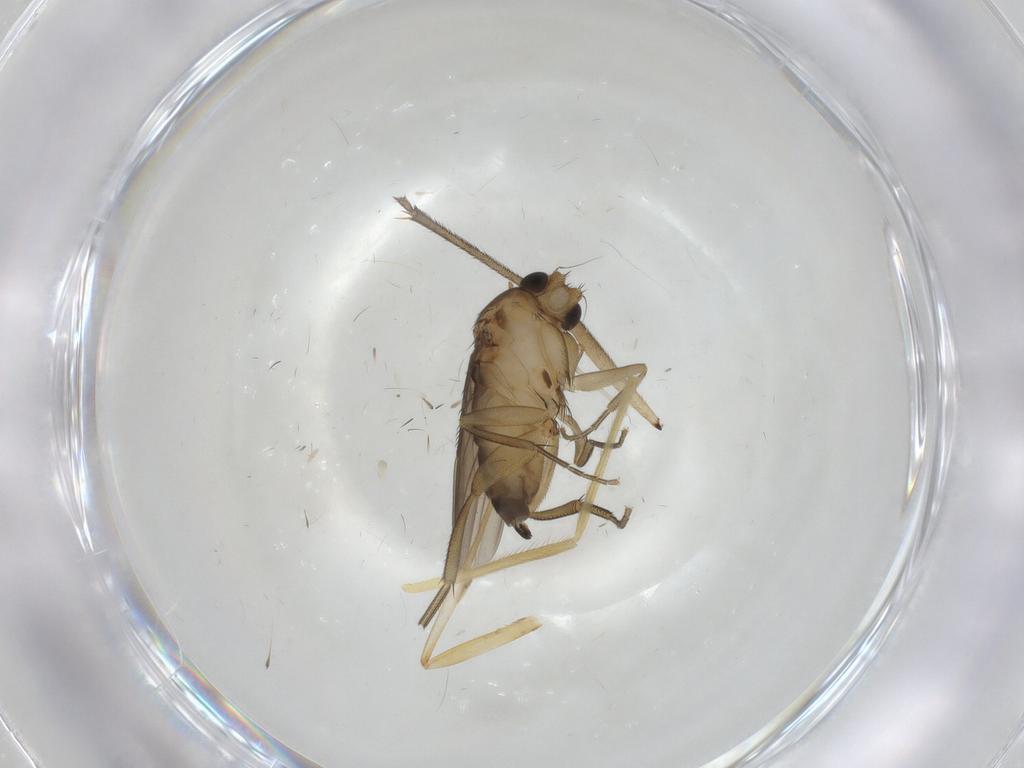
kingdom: Animalia
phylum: Arthropoda
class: Insecta
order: Diptera
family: Phoridae
